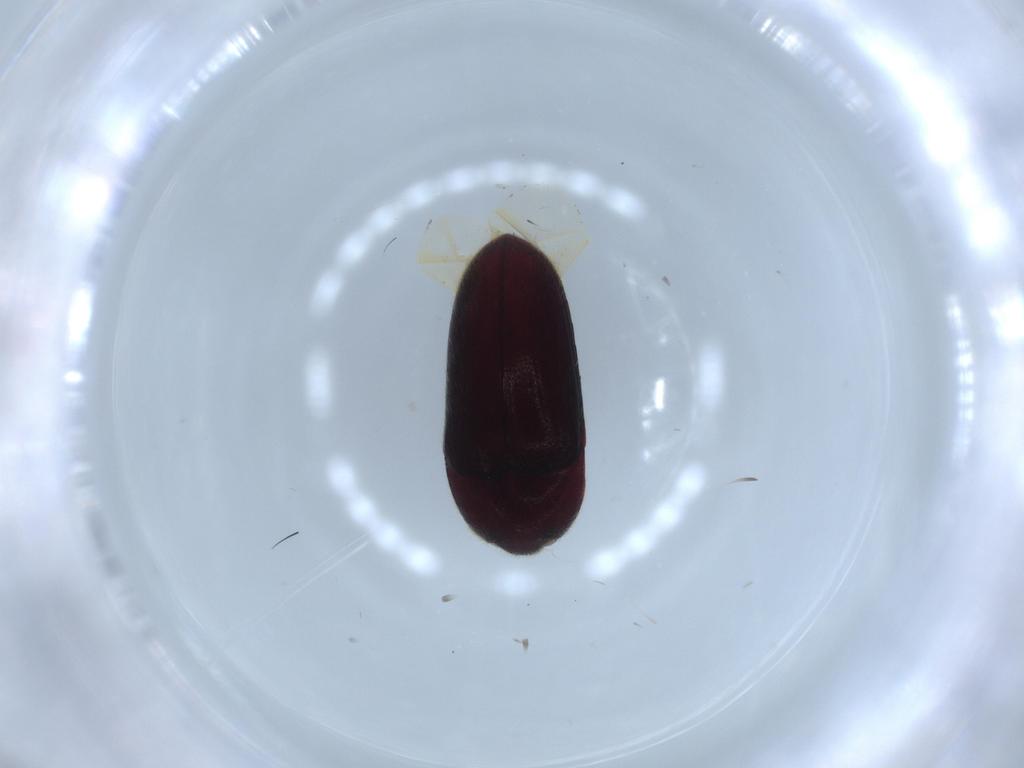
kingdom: Animalia
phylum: Arthropoda
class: Insecta
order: Coleoptera
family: Throscidae
